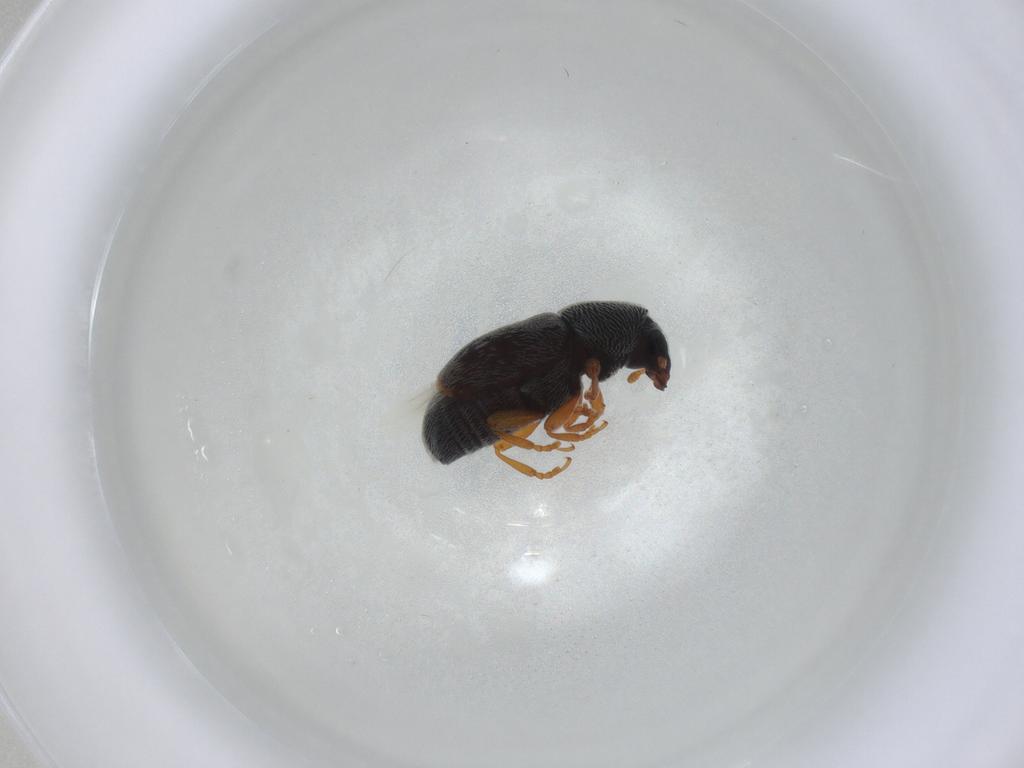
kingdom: Animalia
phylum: Arthropoda
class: Insecta
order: Coleoptera
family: Anthribidae
